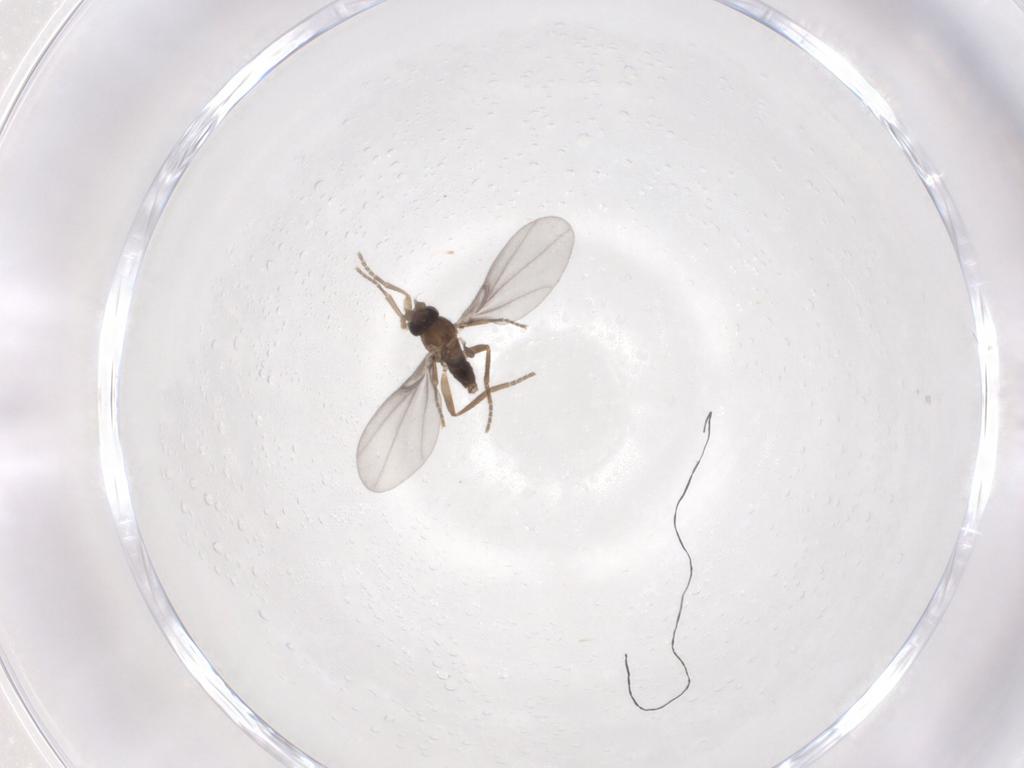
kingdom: Animalia
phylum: Arthropoda
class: Insecta
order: Diptera
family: Phoridae
